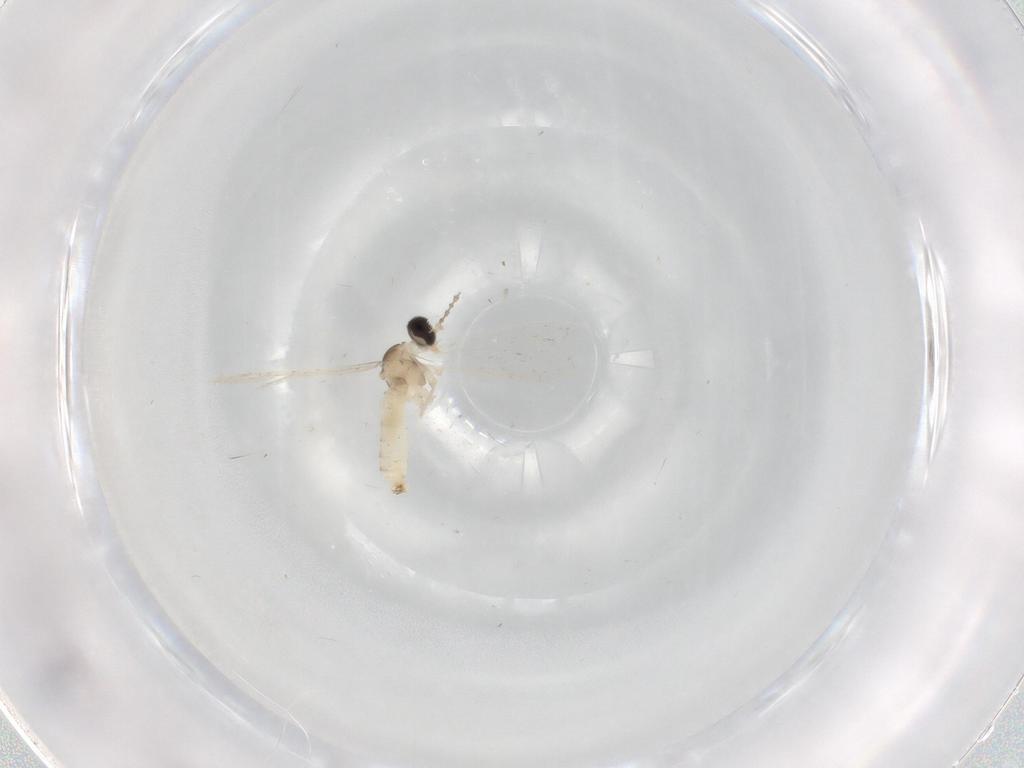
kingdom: Animalia
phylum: Arthropoda
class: Insecta
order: Diptera
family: Cecidomyiidae
